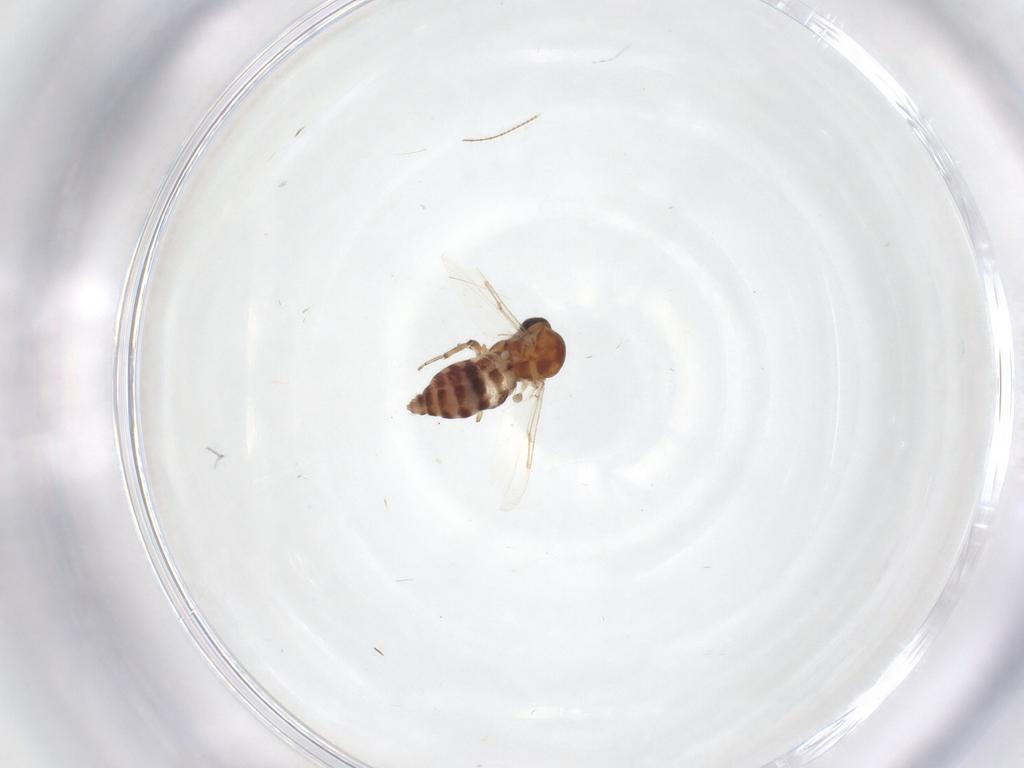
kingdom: Animalia
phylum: Arthropoda
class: Insecta
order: Diptera
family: Ceratopogonidae
